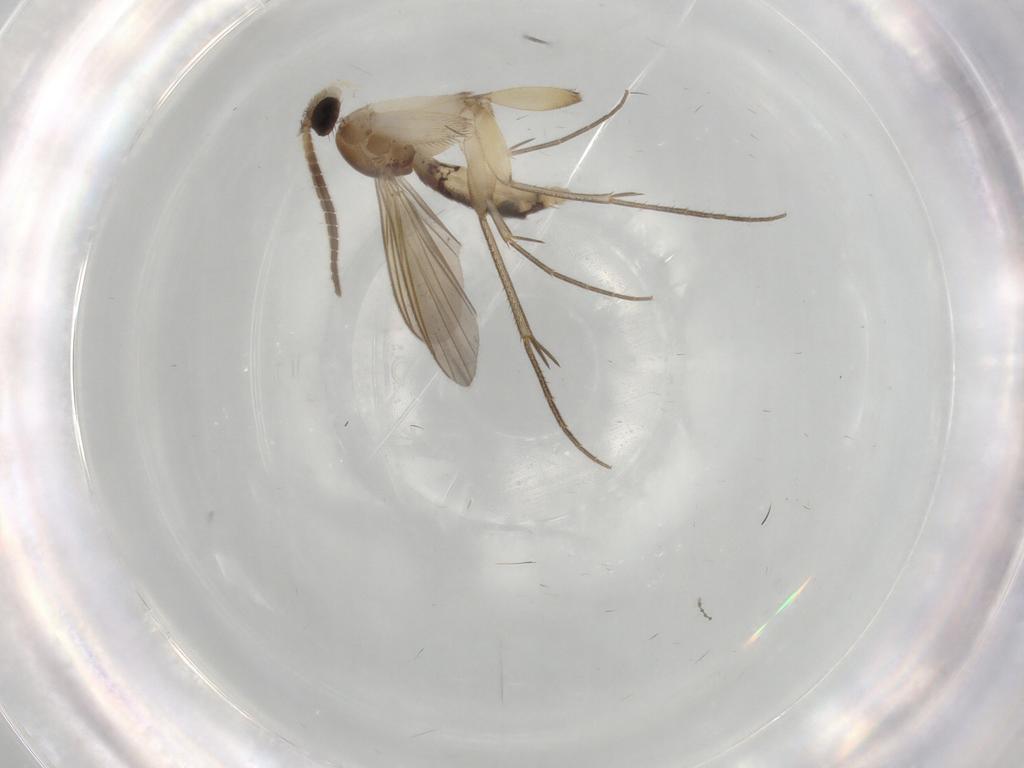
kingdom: Animalia
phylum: Arthropoda
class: Insecta
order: Diptera
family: Mycetophilidae
